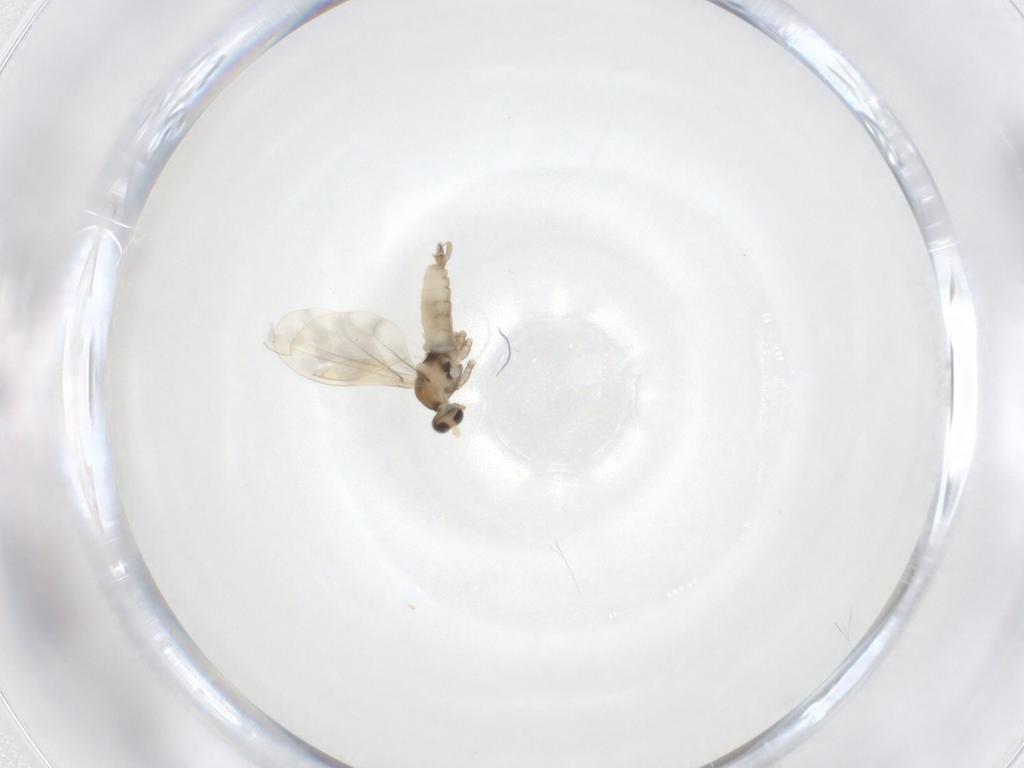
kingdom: Animalia
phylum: Arthropoda
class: Insecta
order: Diptera
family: Cecidomyiidae
